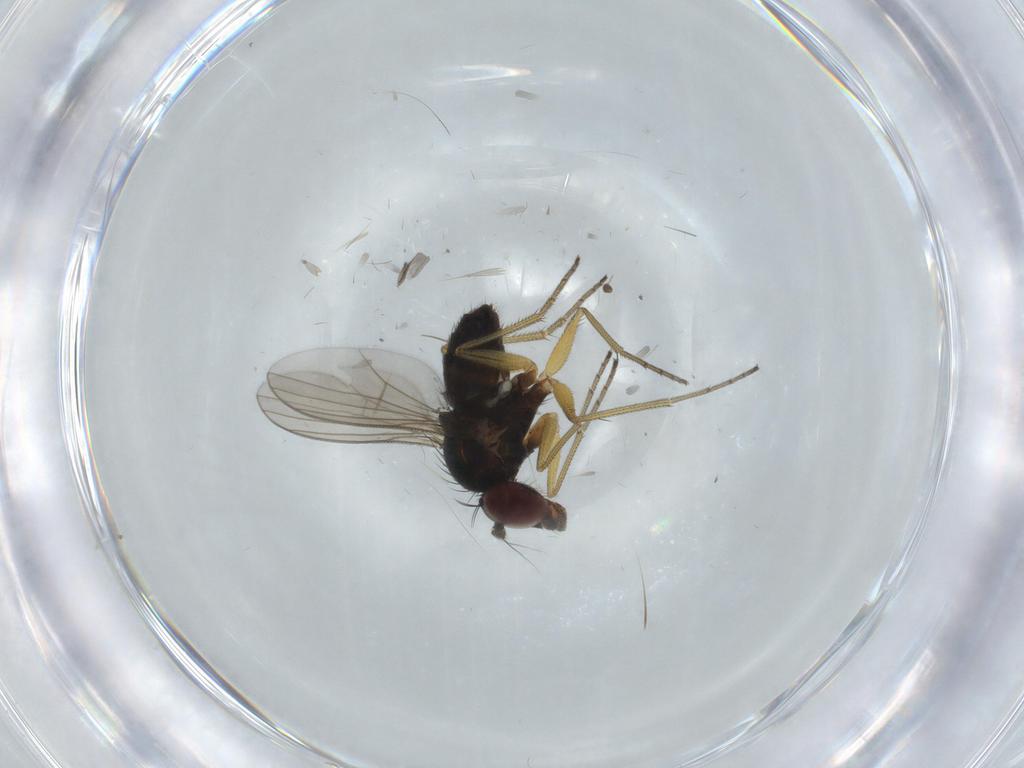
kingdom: Animalia
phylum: Arthropoda
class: Insecta
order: Diptera
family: Dolichopodidae
